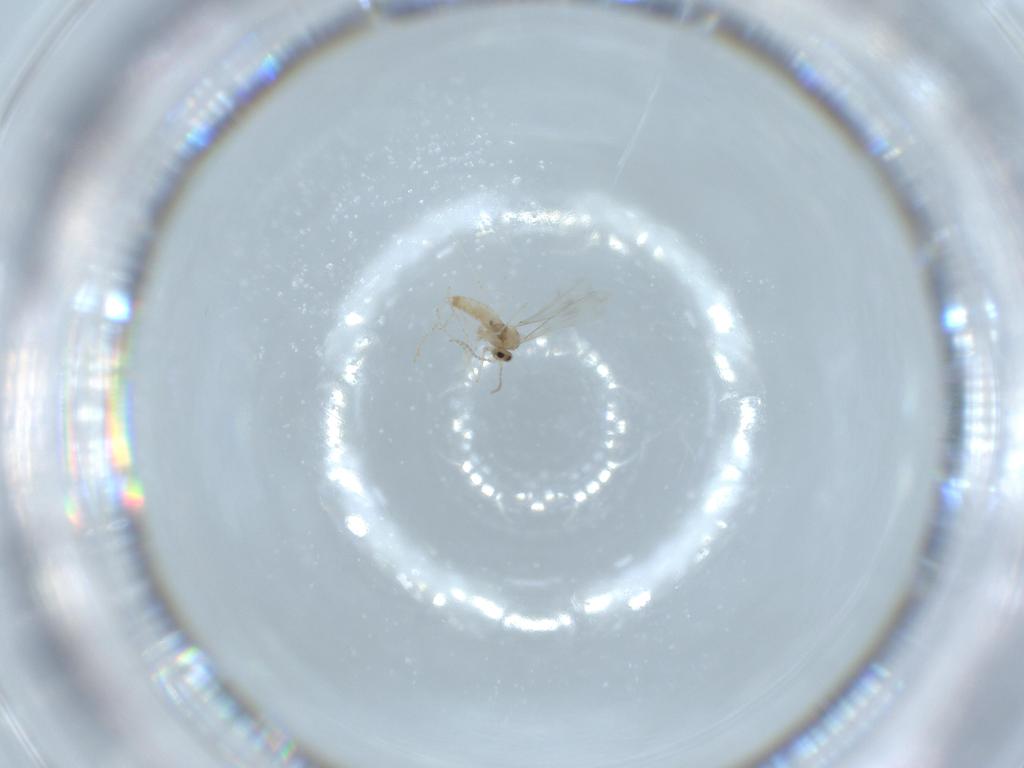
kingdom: Animalia
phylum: Arthropoda
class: Insecta
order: Diptera
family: Cecidomyiidae
